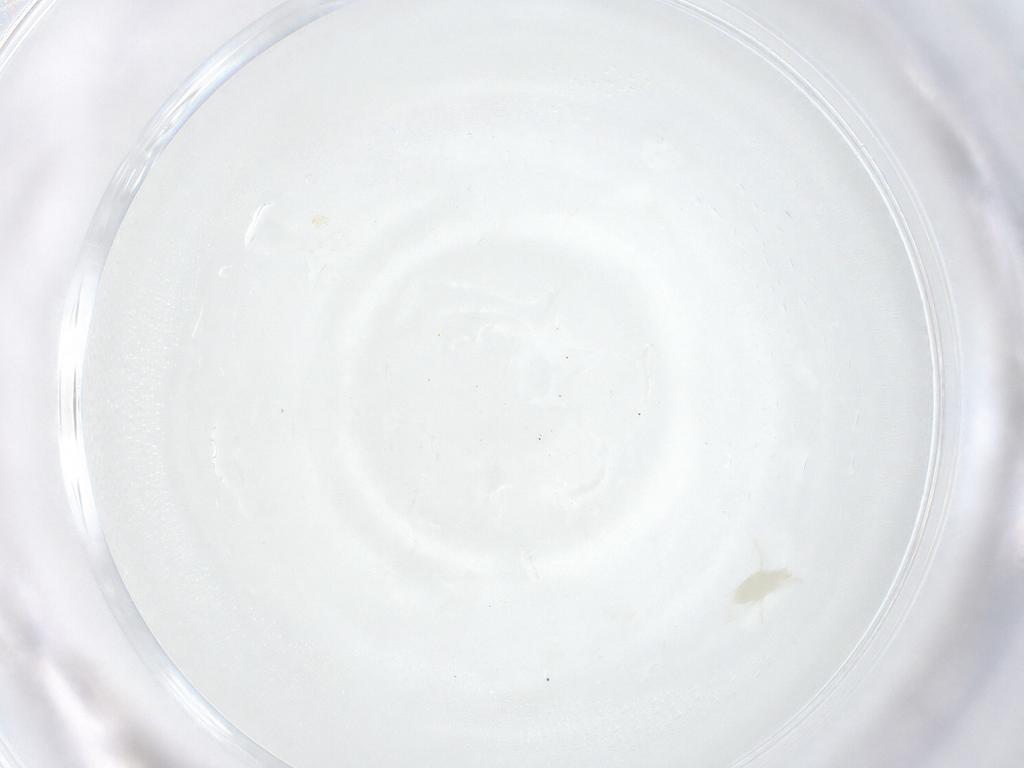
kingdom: Animalia
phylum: Arthropoda
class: Arachnida
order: Trombidiformes
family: Stigmaeidae
